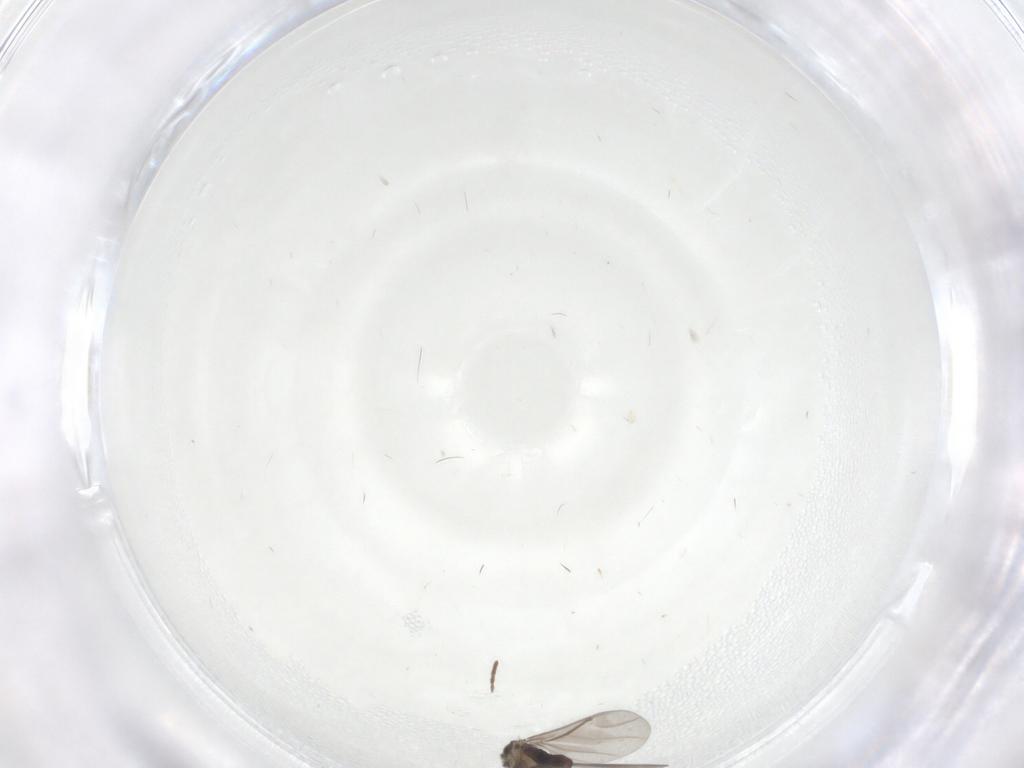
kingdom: Animalia
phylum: Arthropoda
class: Insecta
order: Diptera
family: Chironomidae
